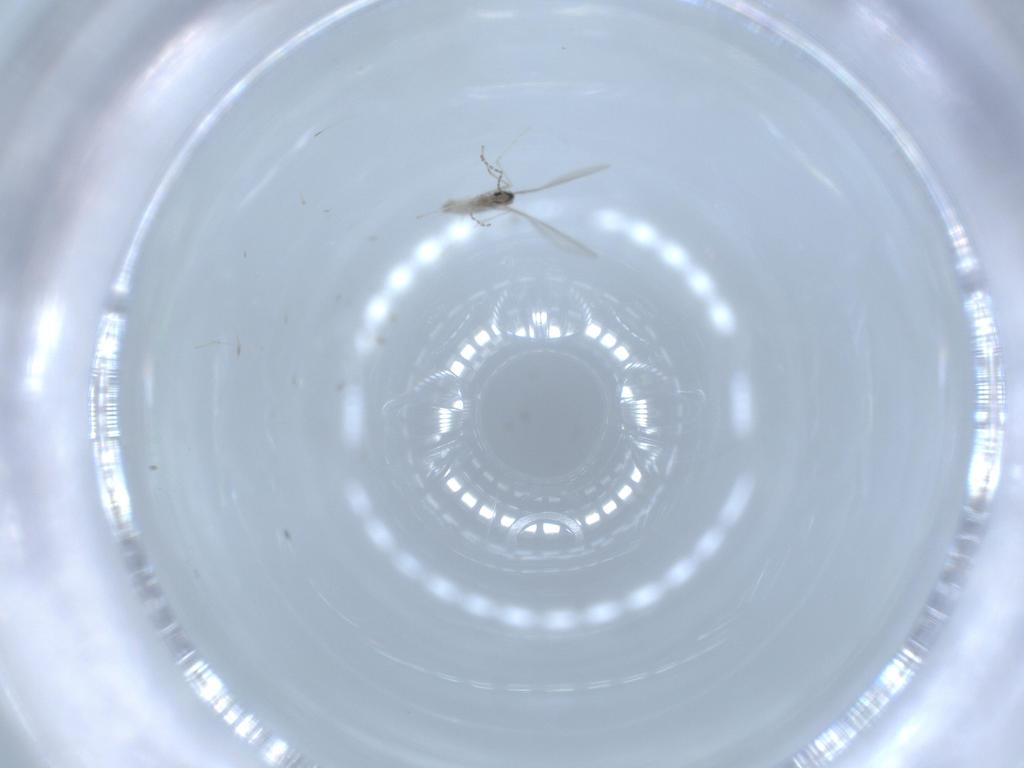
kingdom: Animalia
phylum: Arthropoda
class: Insecta
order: Diptera
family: Cecidomyiidae
